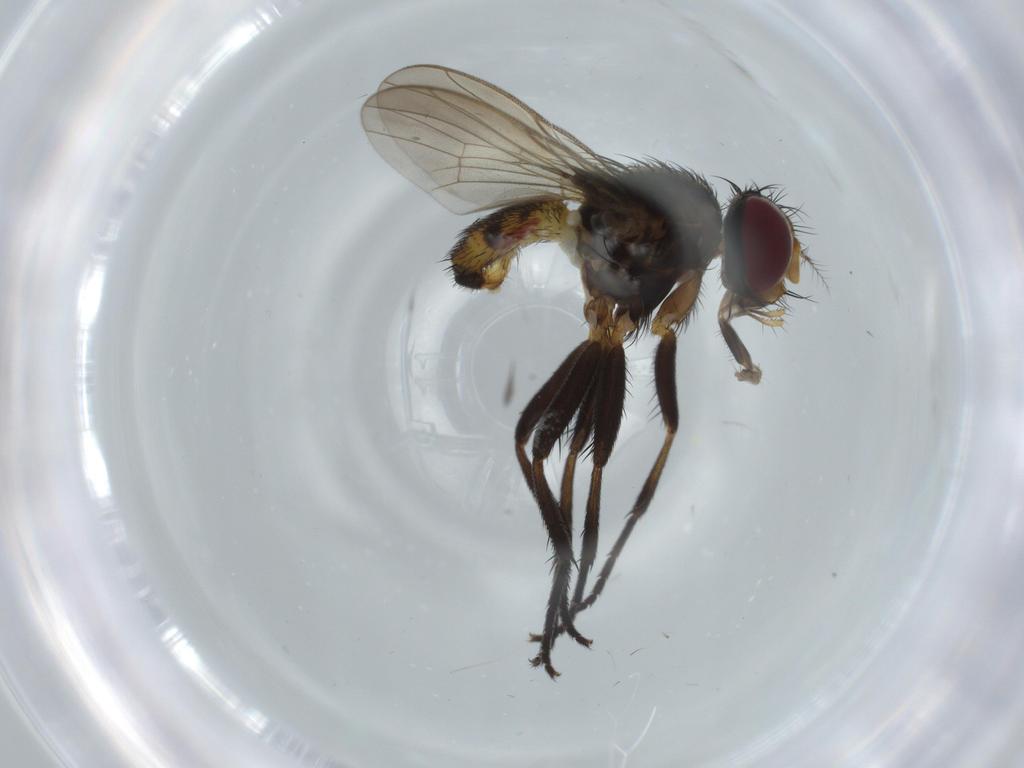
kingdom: Animalia
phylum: Arthropoda
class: Insecta
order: Diptera
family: Anthomyiidae
